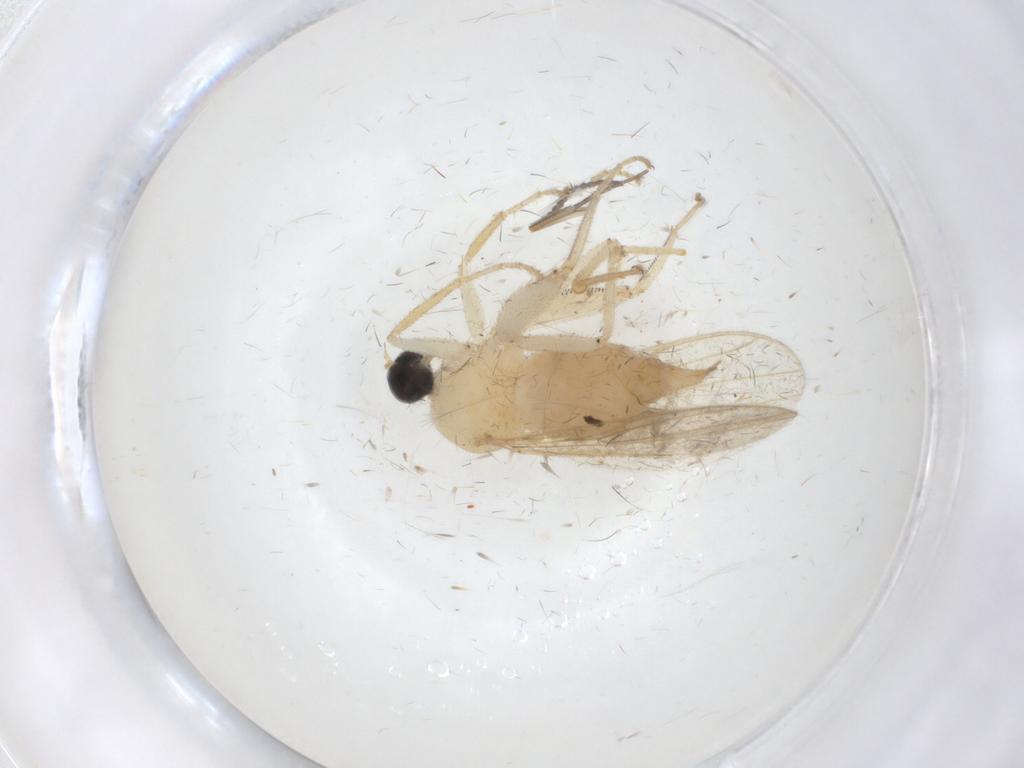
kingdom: Animalia
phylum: Arthropoda
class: Insecta
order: Diptera
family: Hybotidae
